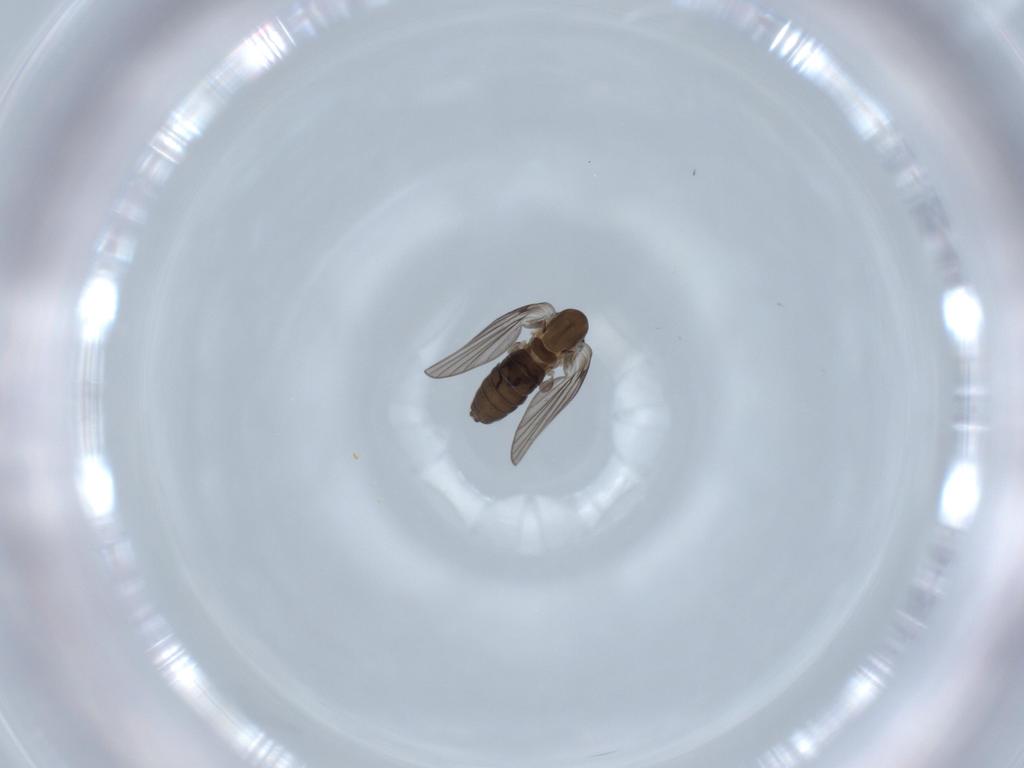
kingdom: Animalia
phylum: Arthropoda
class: Insecta
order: Diptera
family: Psychodidae
